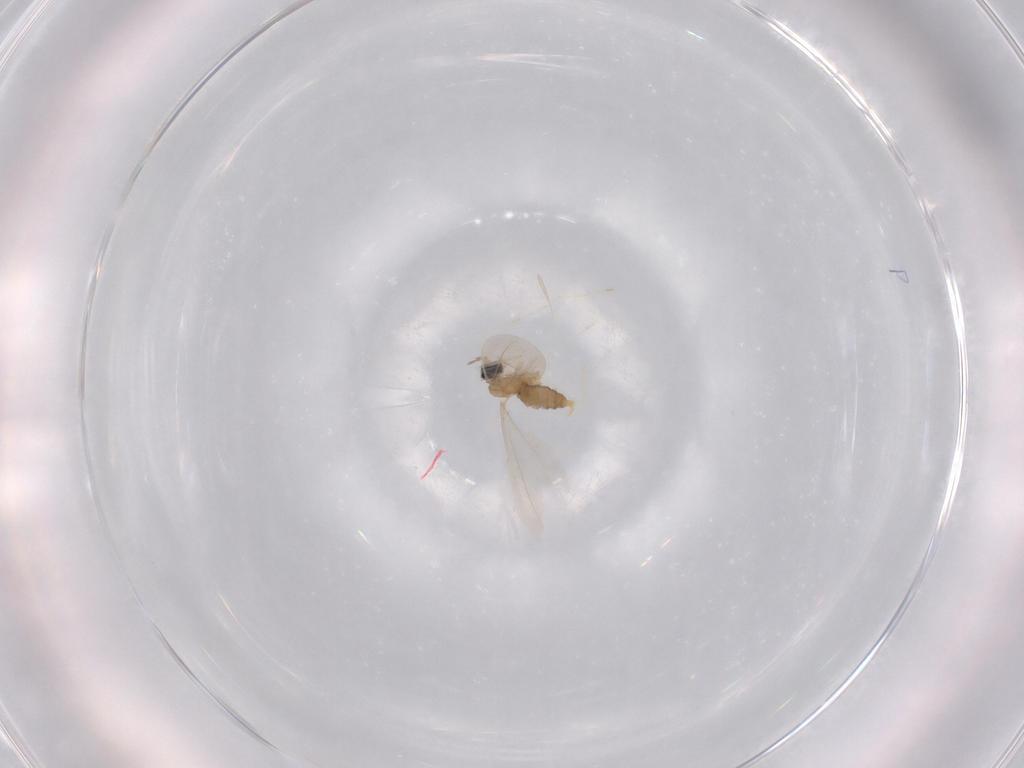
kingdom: Animalia
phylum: Arthropoda
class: Insecta
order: Diptera
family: Cecidomyiidae
